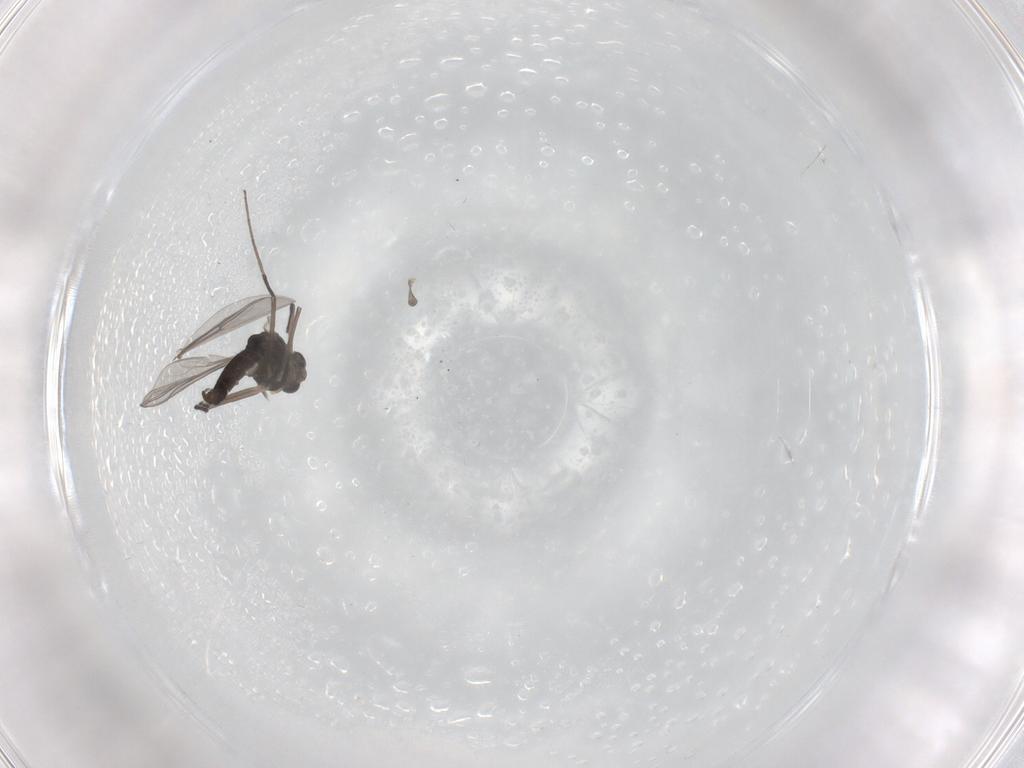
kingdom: Animalia
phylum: Arthropoda
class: Insecta
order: Diptera
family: Chironomidae
